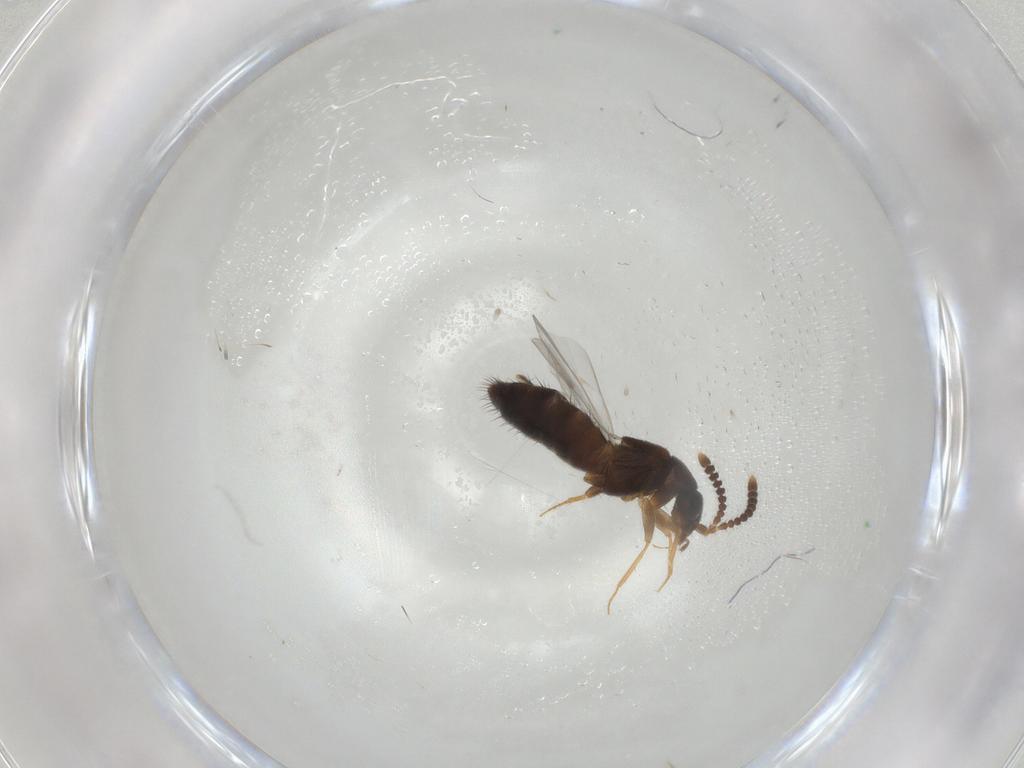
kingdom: Animalia
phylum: Arthropoda
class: Insecta
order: Coleoptera
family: Staphylinidae
